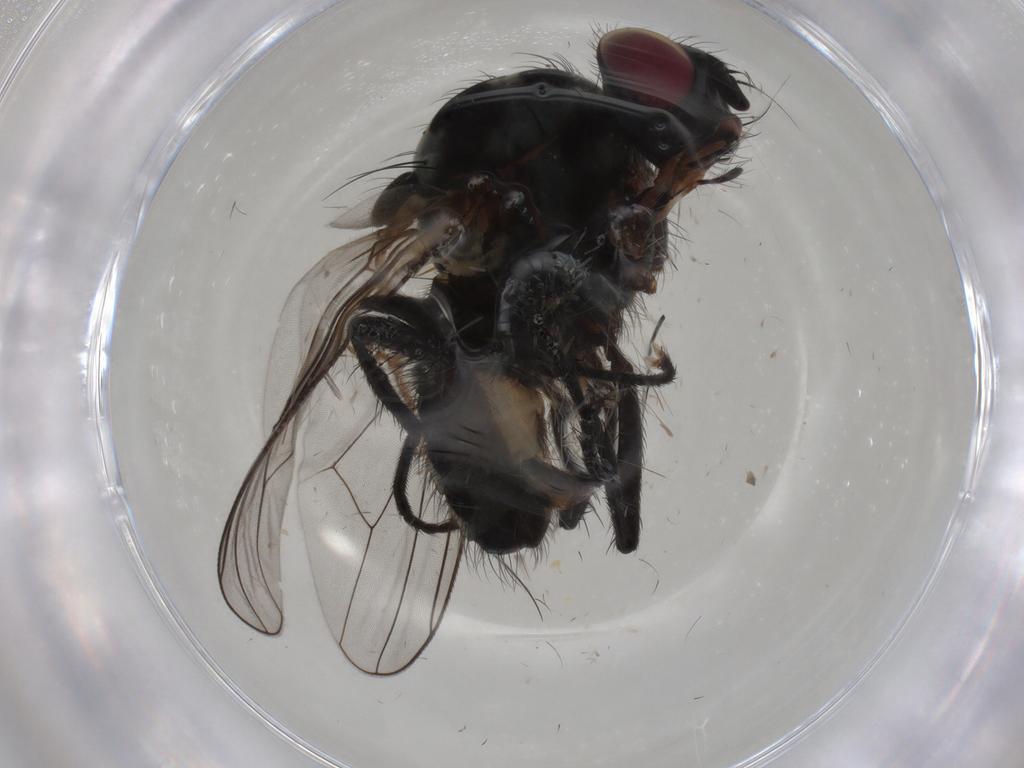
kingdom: Animalia
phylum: Arthropoda
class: Insecta
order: Diptera
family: Anthomyiidae
